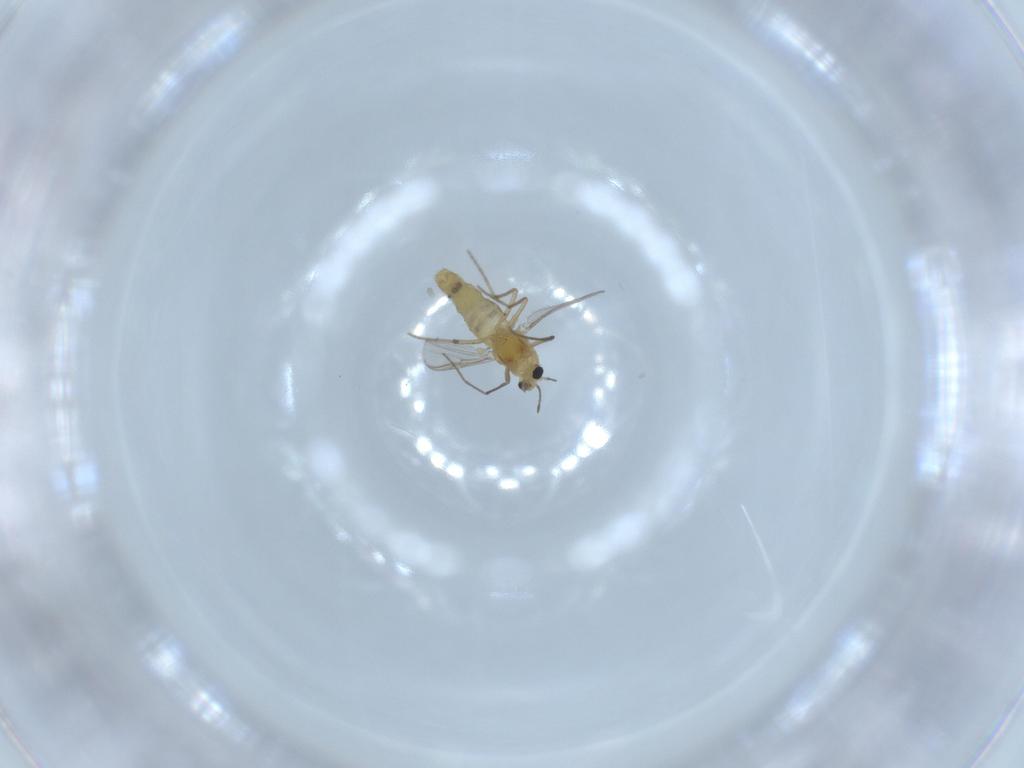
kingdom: Animalia
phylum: Arthropoda
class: Insecta
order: Diptera
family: Chironomidae
